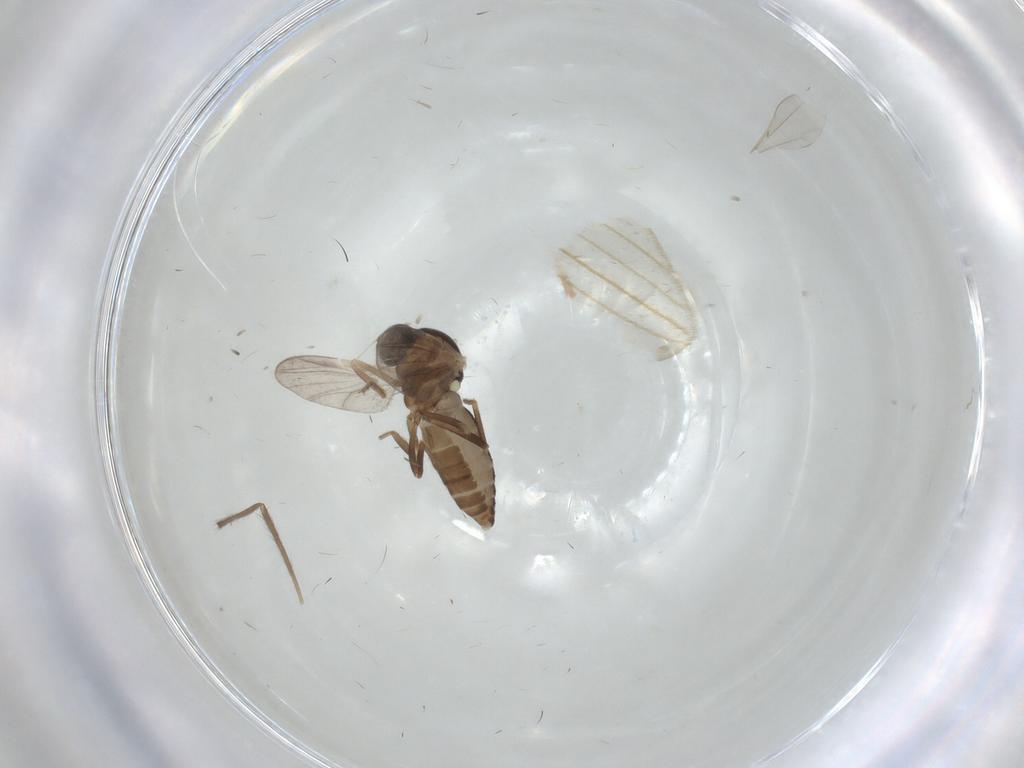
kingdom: Animalia
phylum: Arthropoda
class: Insecta
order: Diptera
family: Ceratopogonidae
